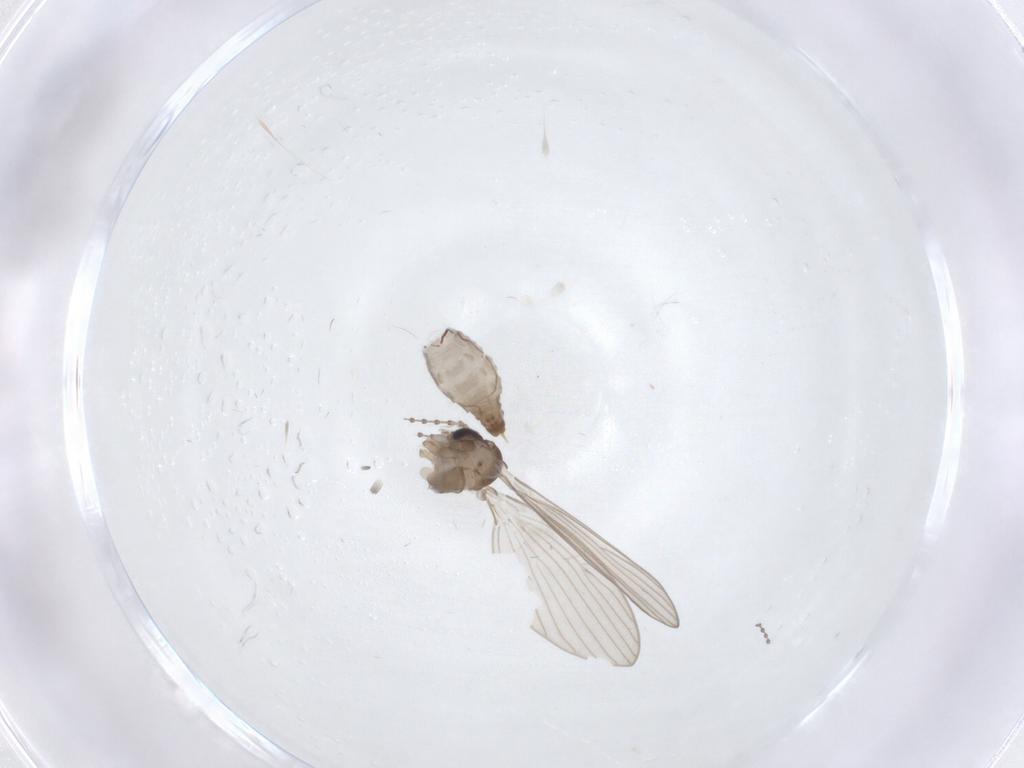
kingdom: Animalia
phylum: Arthropoda
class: Insecta
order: Diptera
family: Psychodidae
